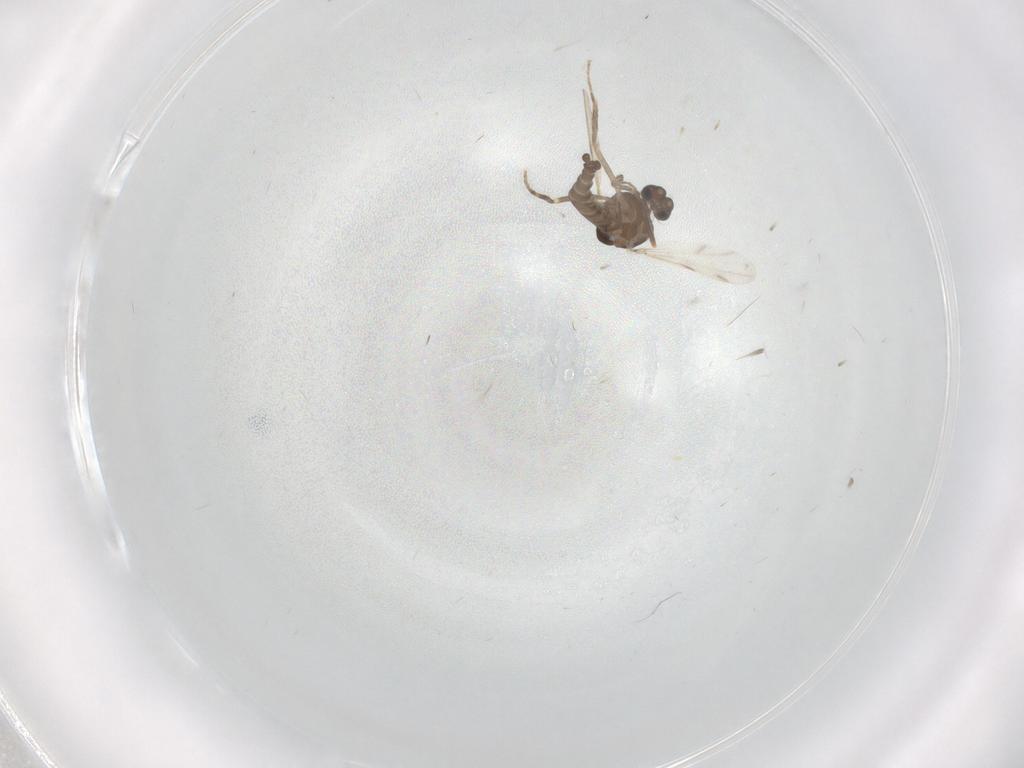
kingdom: Animalia
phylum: Arthropoda
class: Insecta
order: Diptera
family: Ceratopogonidae
